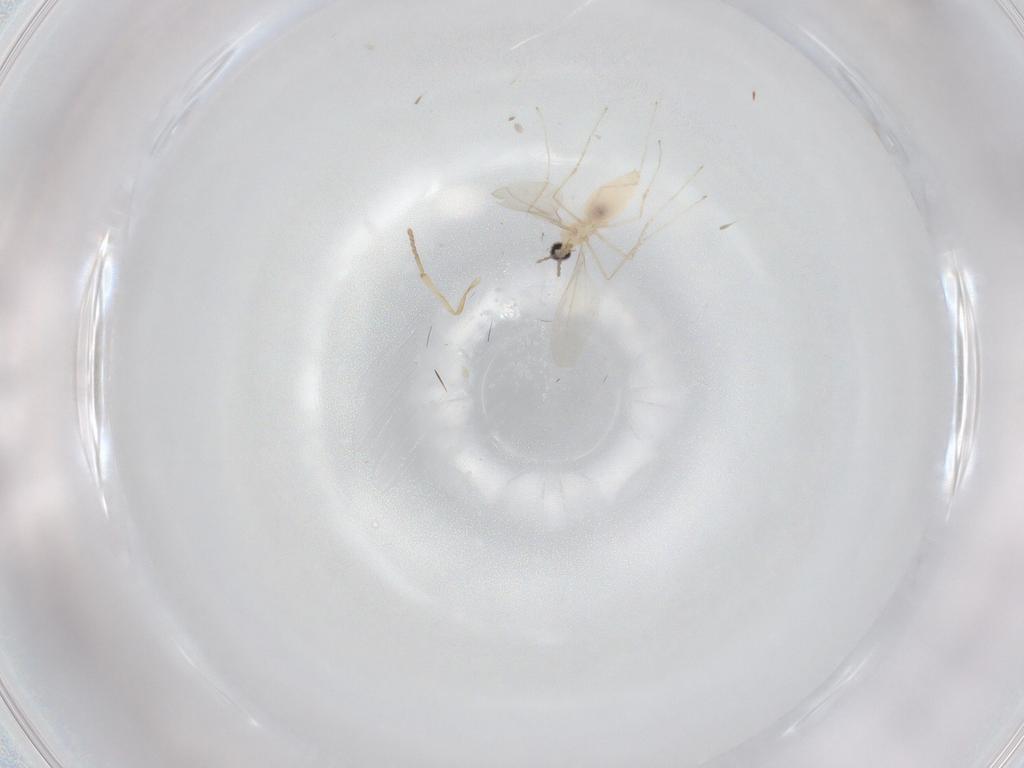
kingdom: Animalia
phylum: Arthropoda
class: Insecta
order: Diptera
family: Cecidomyiidae
